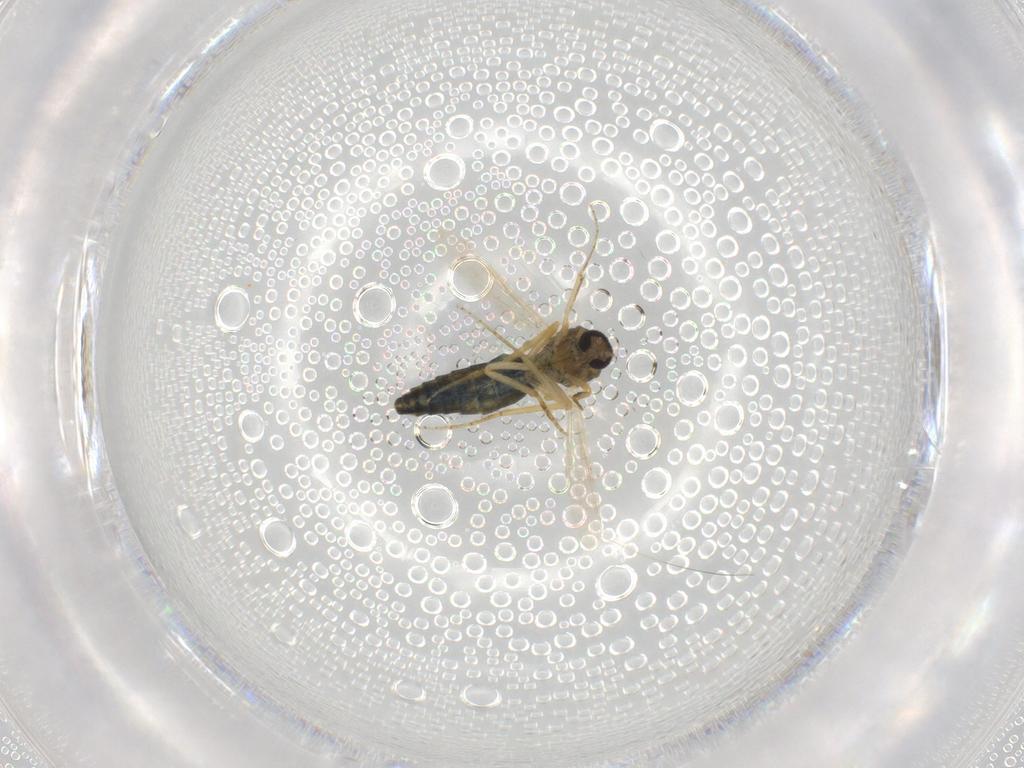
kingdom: Animalia
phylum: Arthropoda
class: Insecta
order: Diptera
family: Ceratopogonidae
